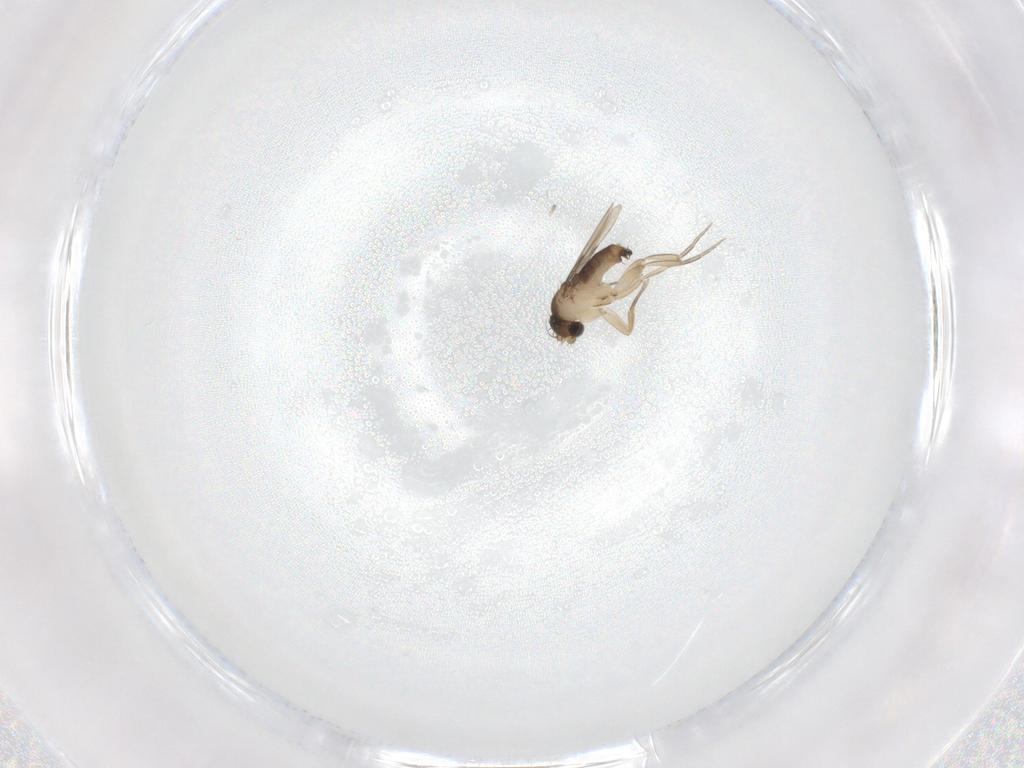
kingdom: Animalia
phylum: Arthropoda
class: Insecta
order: Diptera
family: Phoridae
